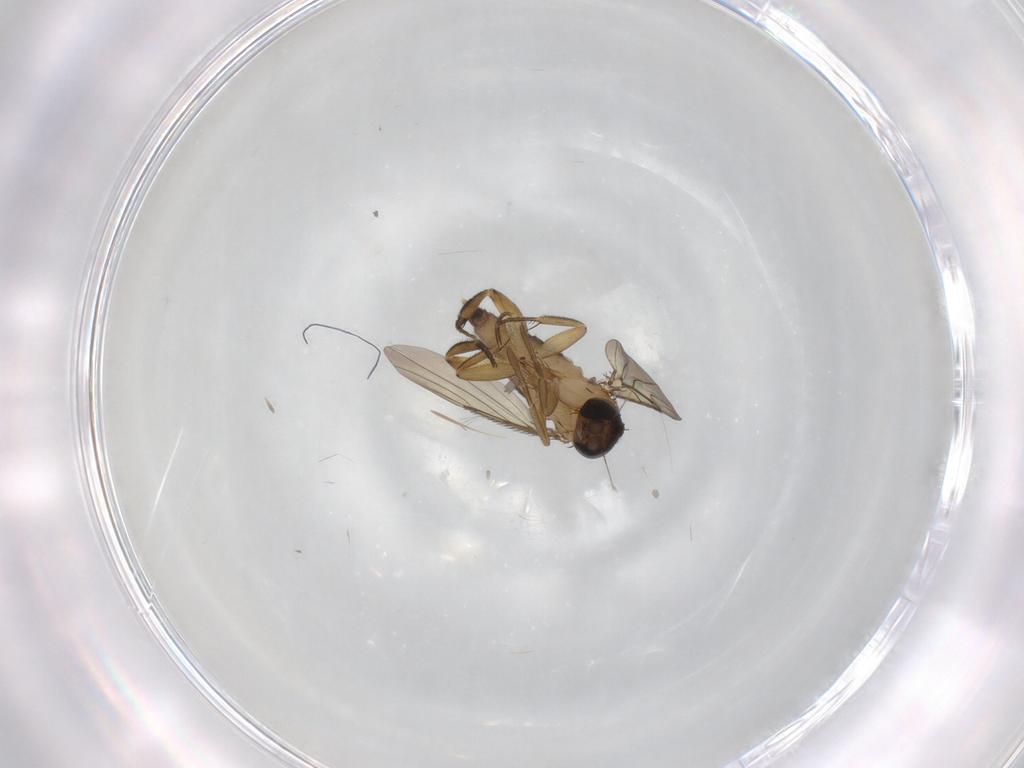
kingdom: Animalia
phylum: Arthropoda
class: Insecta
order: Diptera
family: Phoridae
